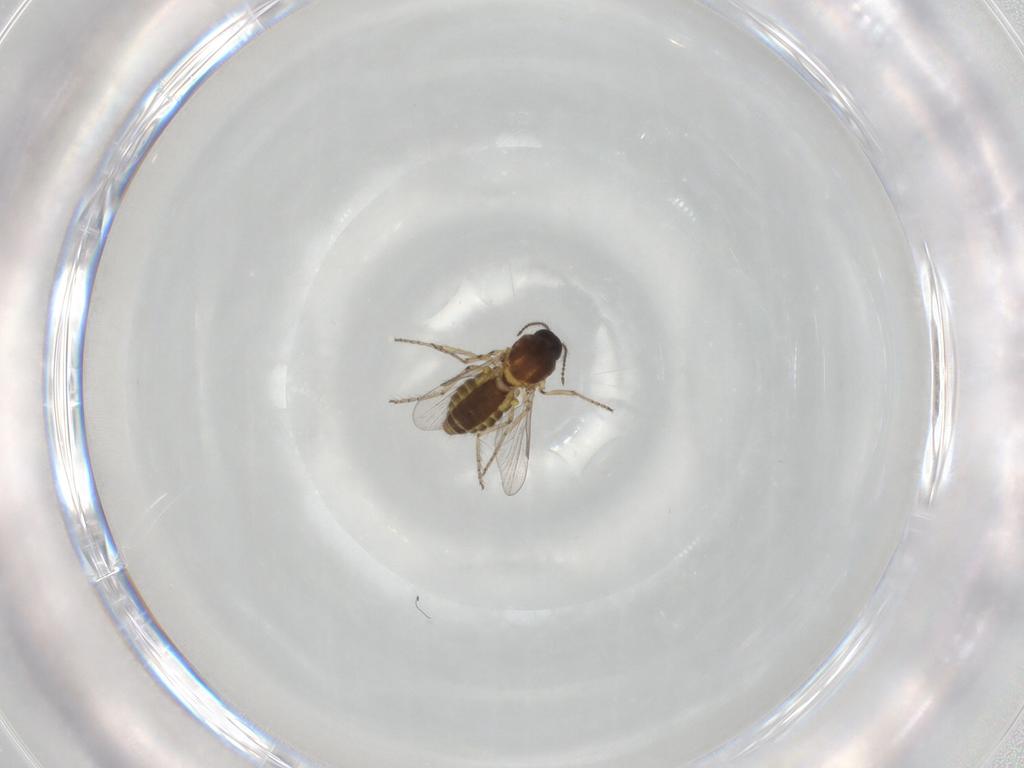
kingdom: Animalia
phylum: Arthropoda
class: Insecta
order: Diptera
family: Ceratopogonidae
